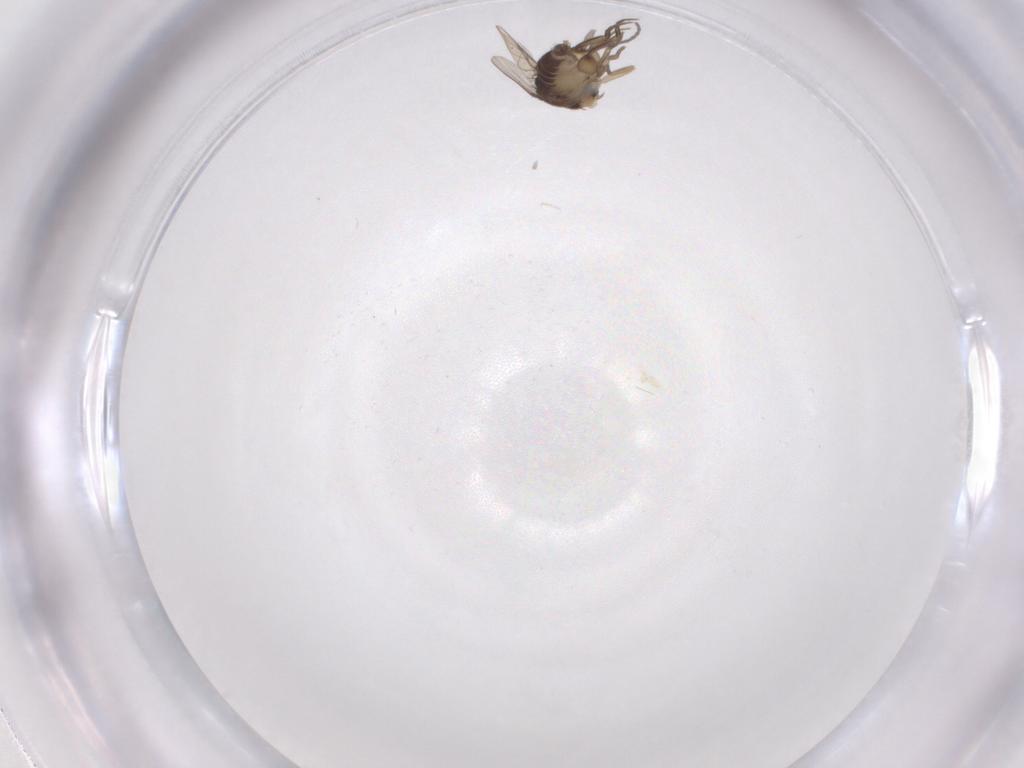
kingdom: Animalia
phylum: Arthropoda
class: Insecta
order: Diptera
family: Phoridae
